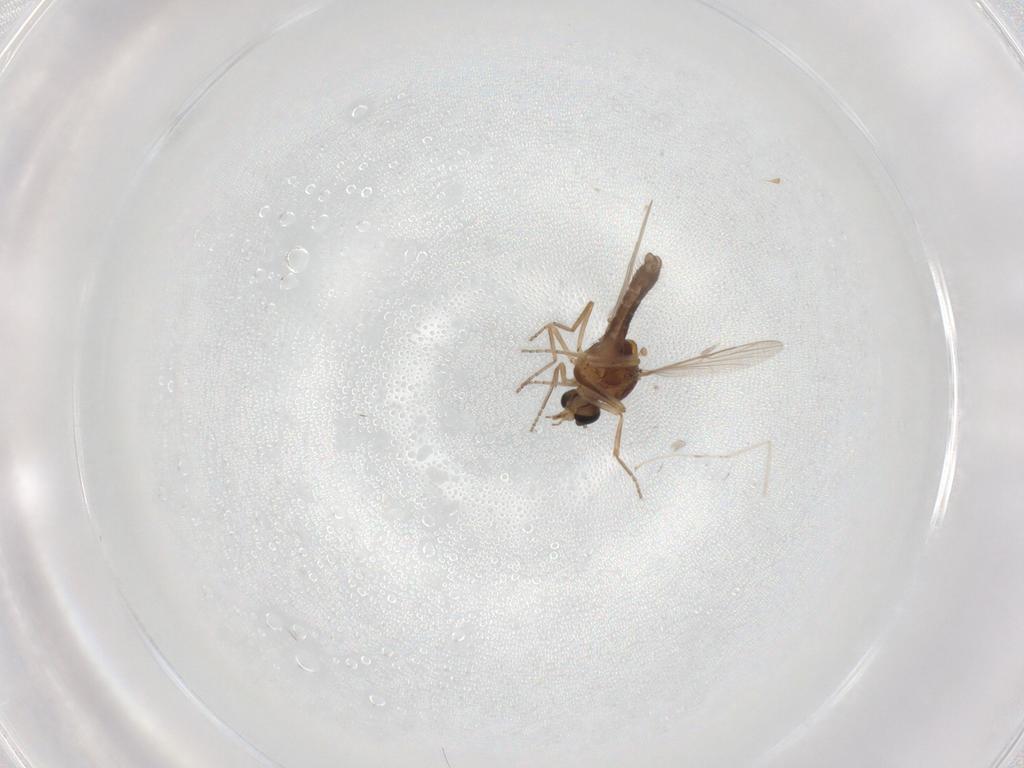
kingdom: Animalia
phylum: Arthropoda
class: Insecta
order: Diptera
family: Ceratopogonidae
